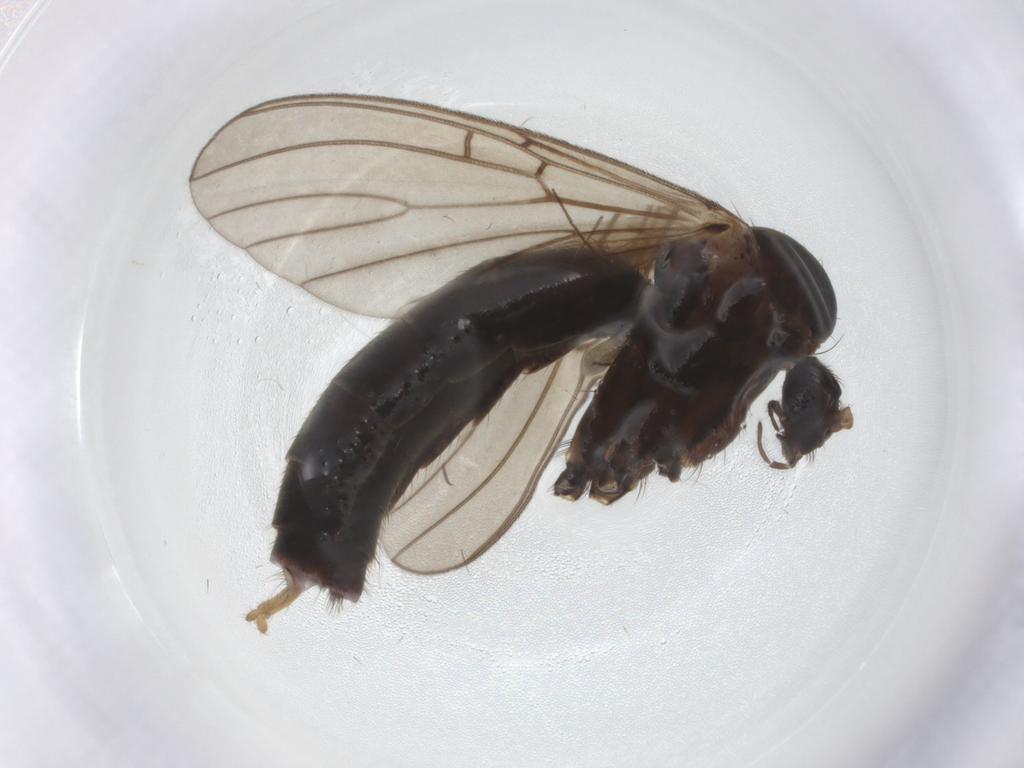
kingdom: Animalia
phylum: Arthropoda
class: Insecta
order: Diptera
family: Mycetophilidae
